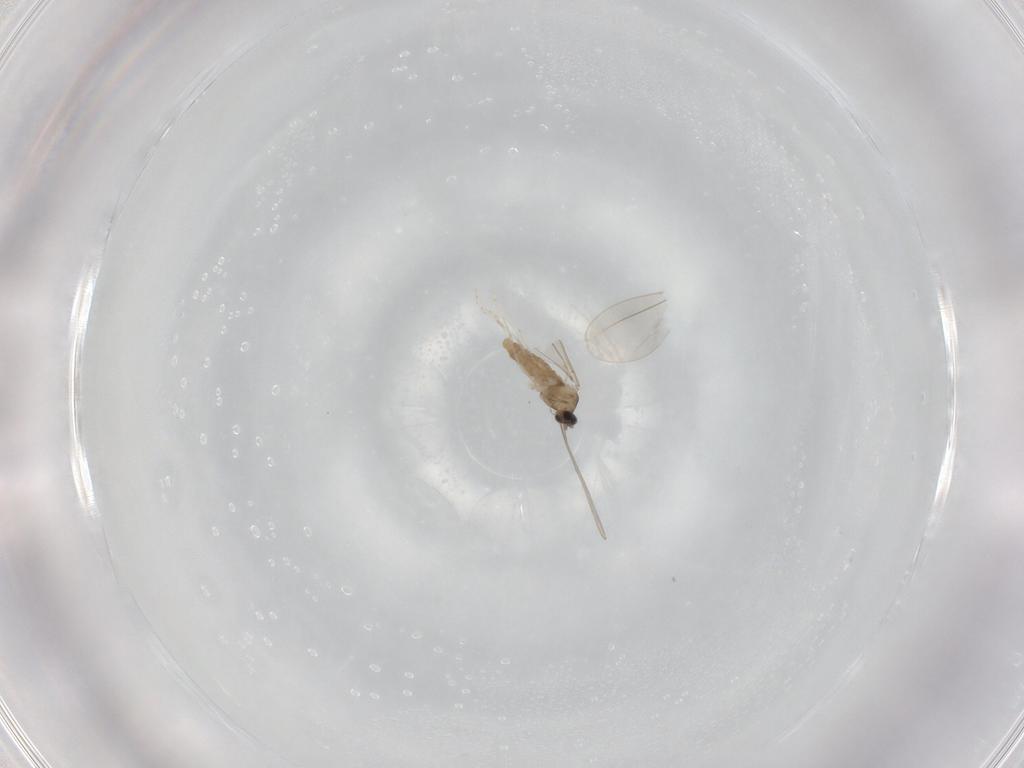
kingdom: Animalia
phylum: Arthropoda
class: Insecta
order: Diptera
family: Cecidomyiidae
